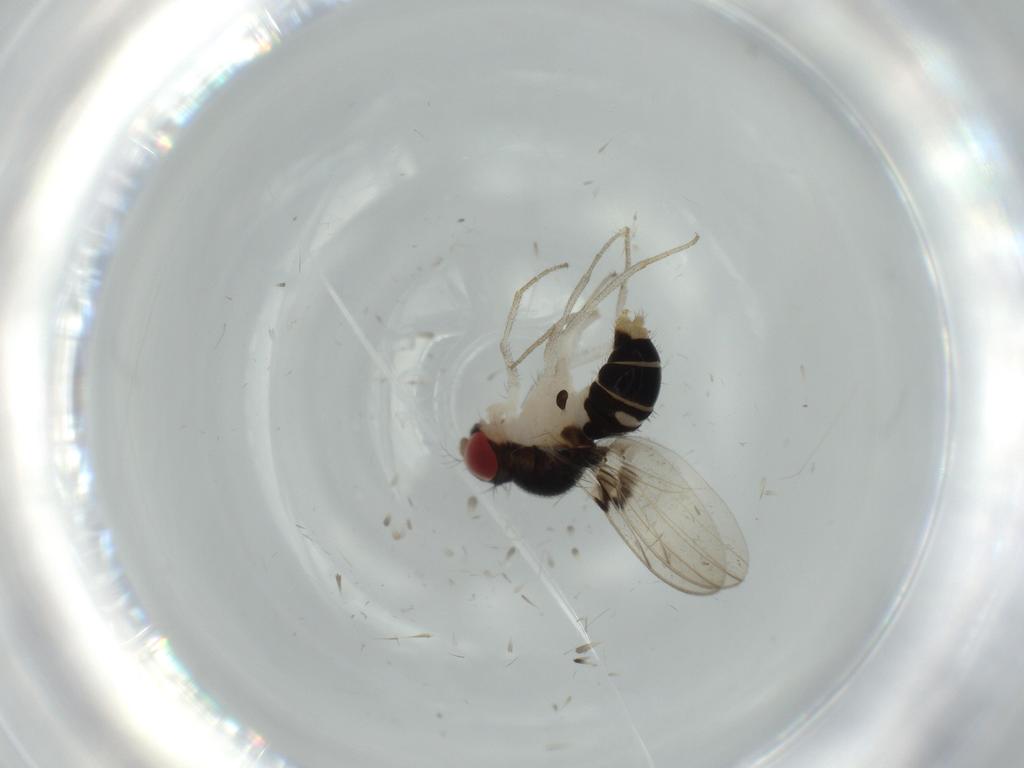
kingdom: Animalia
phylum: Arthropoda
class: Insecta
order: Diptera
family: Drosophilidae
